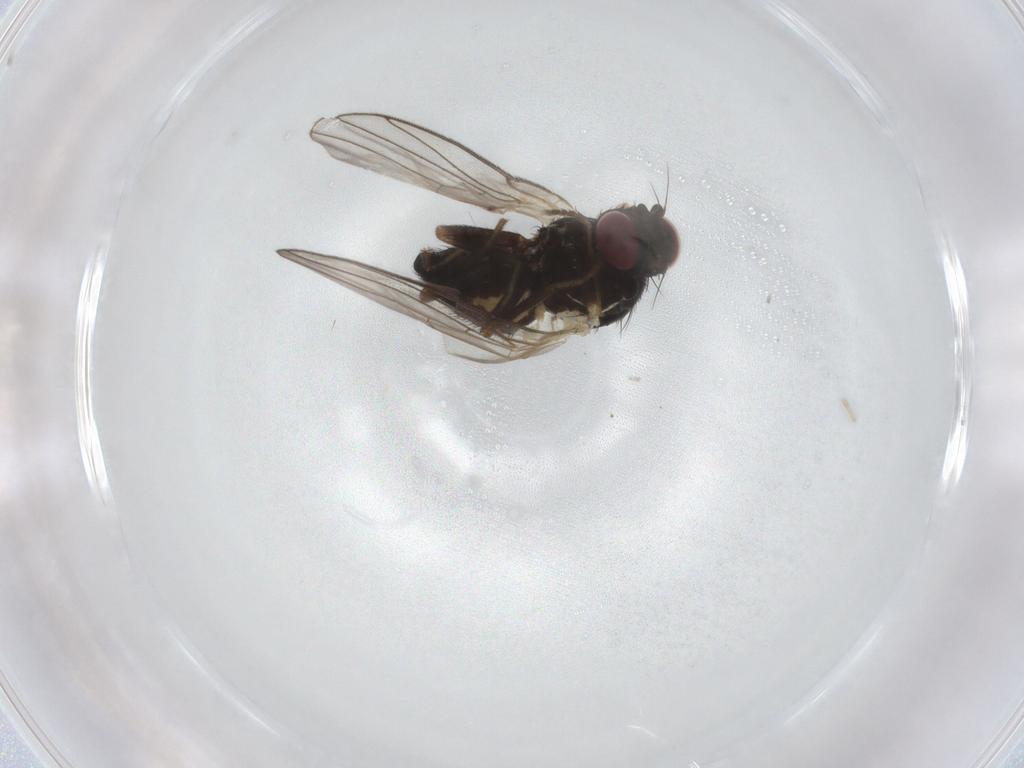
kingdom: Animalia
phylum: Arthropoda
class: Insecta
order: Diptera
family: Agromyzidae
